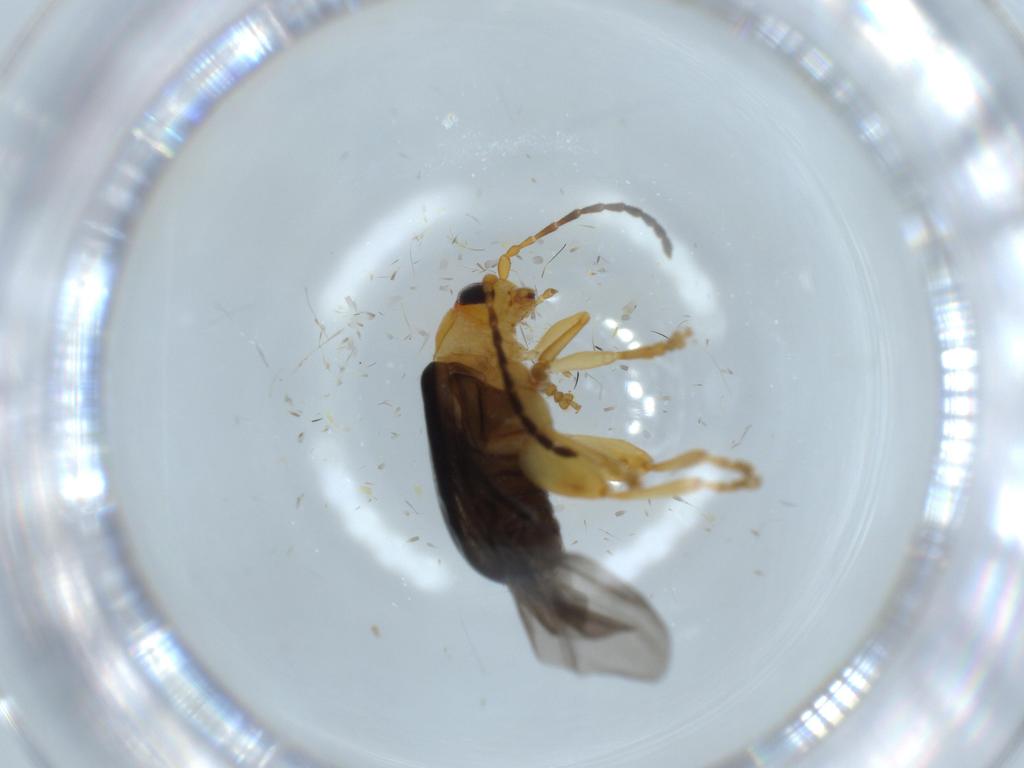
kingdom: Animalia
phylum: Arthropoda
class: Insecta
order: Coleoptera
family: Chrysomelidae
